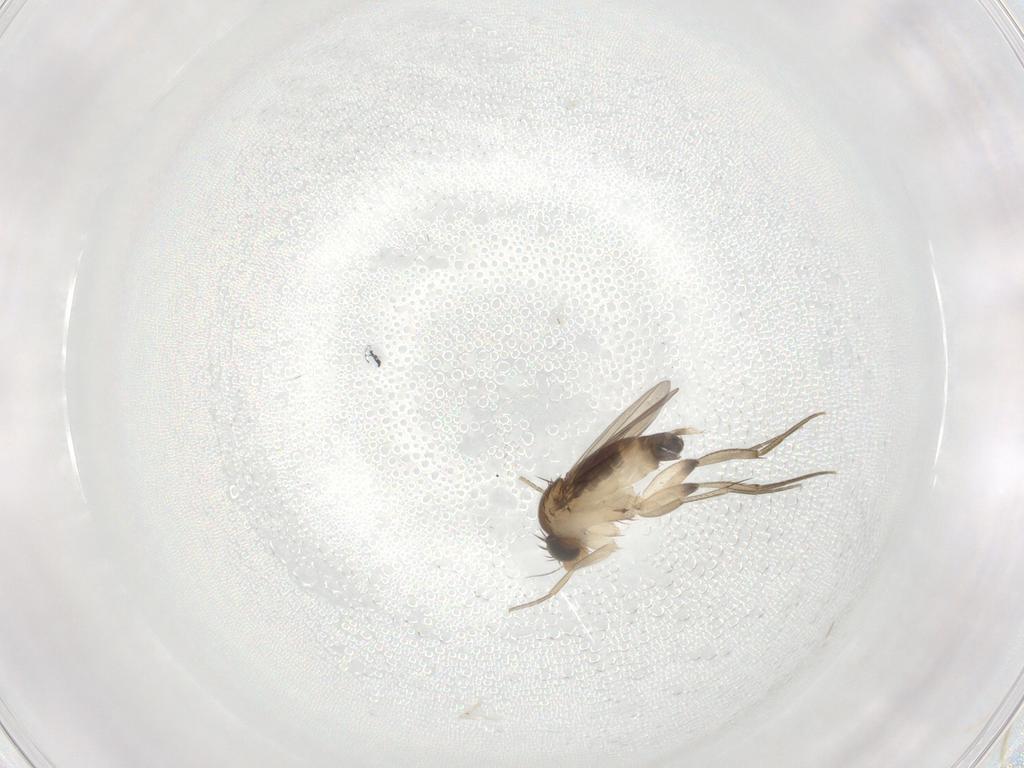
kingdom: Animalia
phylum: Arthropoda
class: Insecta
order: Diptera
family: Phoridae
